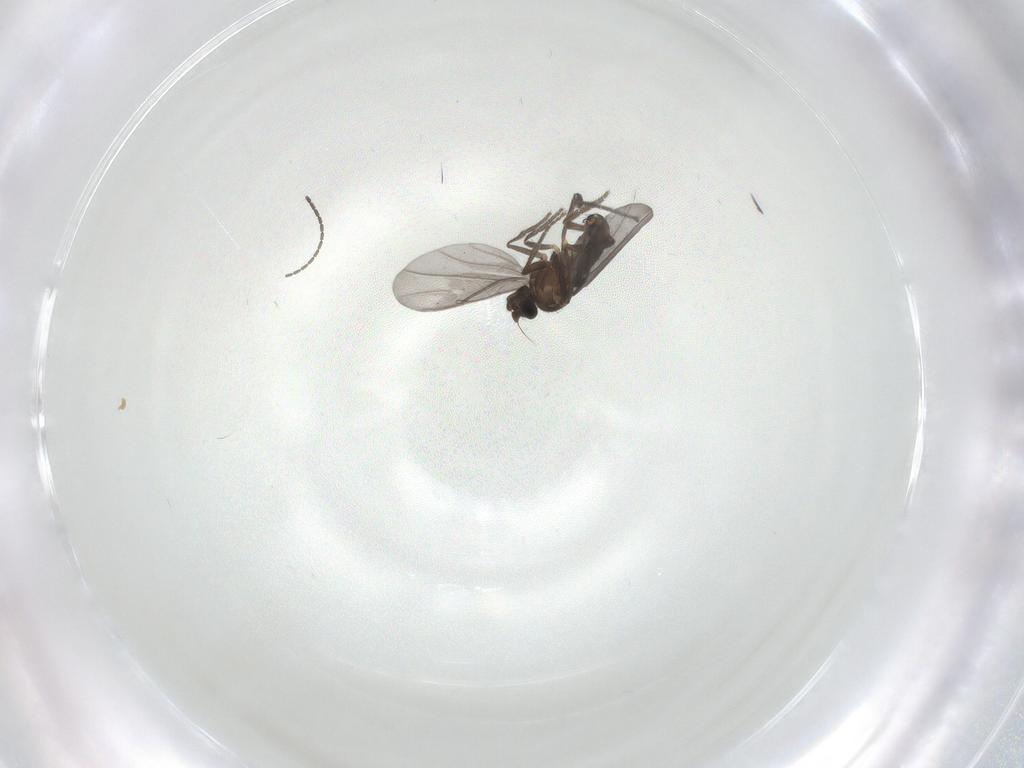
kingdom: Animalia
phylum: Arthropoda
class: Insecta
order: Diptera
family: Phoridae
